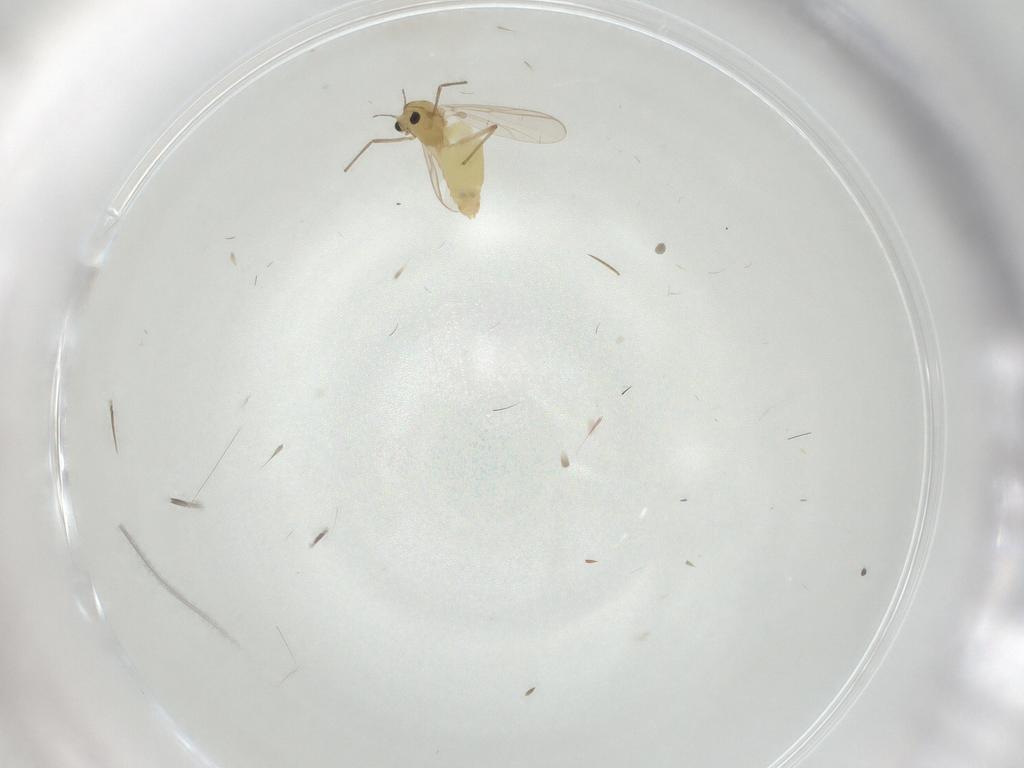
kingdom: Animalia
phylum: Arthropoda
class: Insecta
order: Diptera
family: Chironomidae
